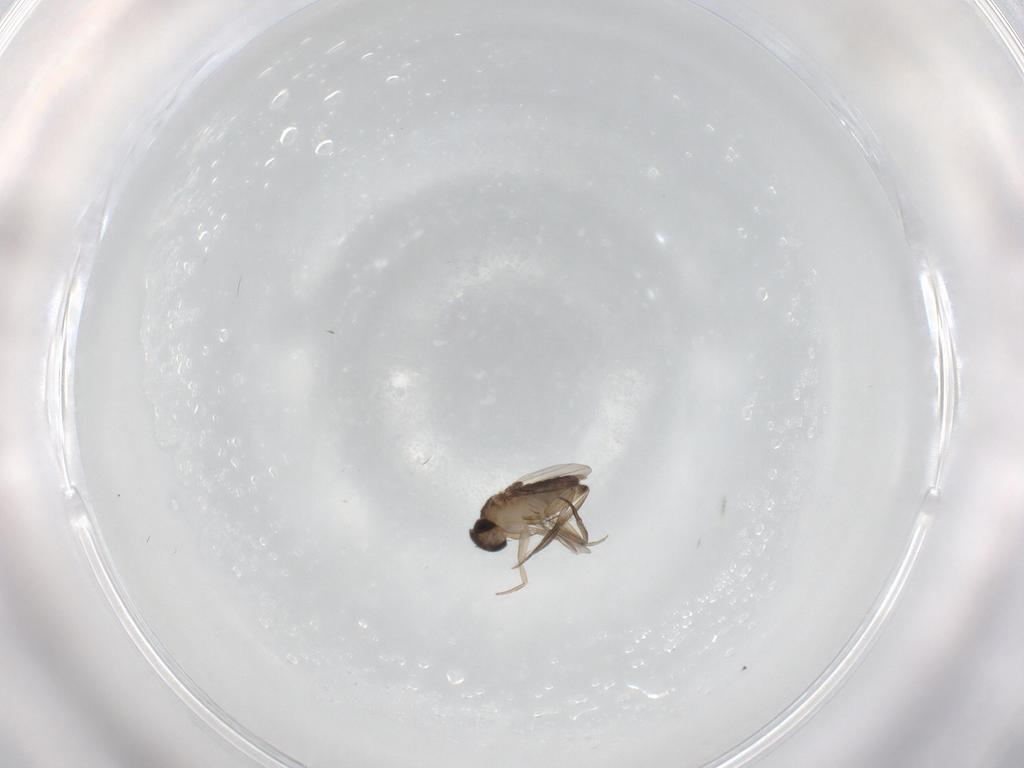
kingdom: Animalia
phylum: Arthropoda
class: Insecta
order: Diptera
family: Phoridae
